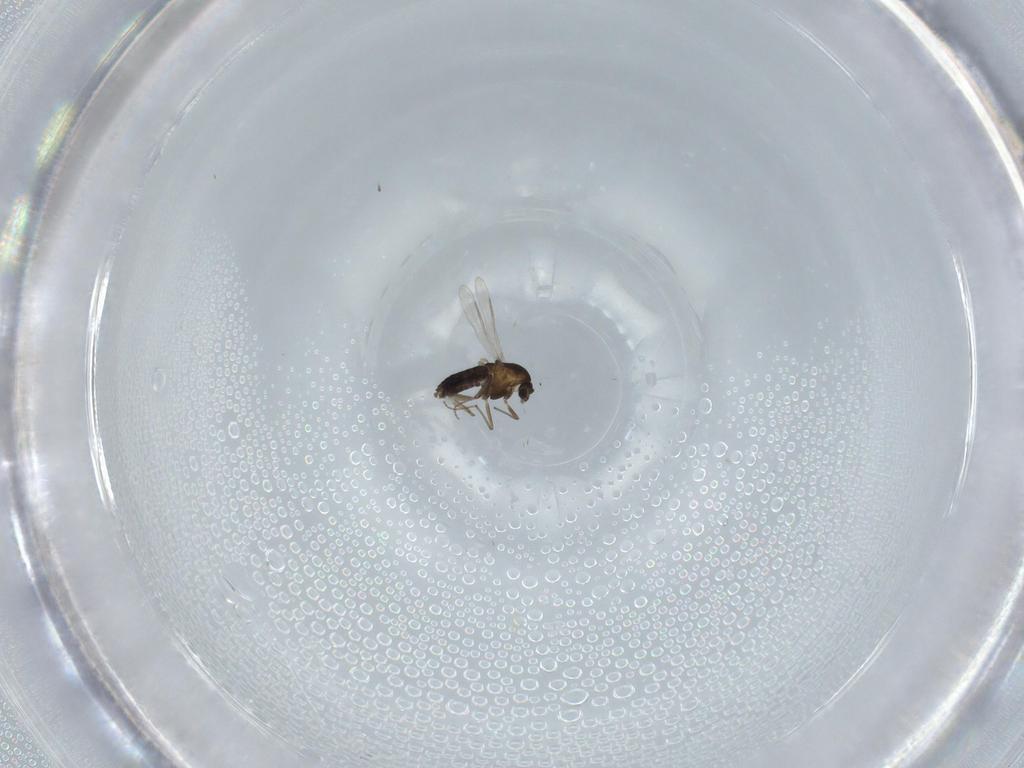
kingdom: Animalia
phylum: Arthropoda
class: Insecta
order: Diptera
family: Chironomidae
